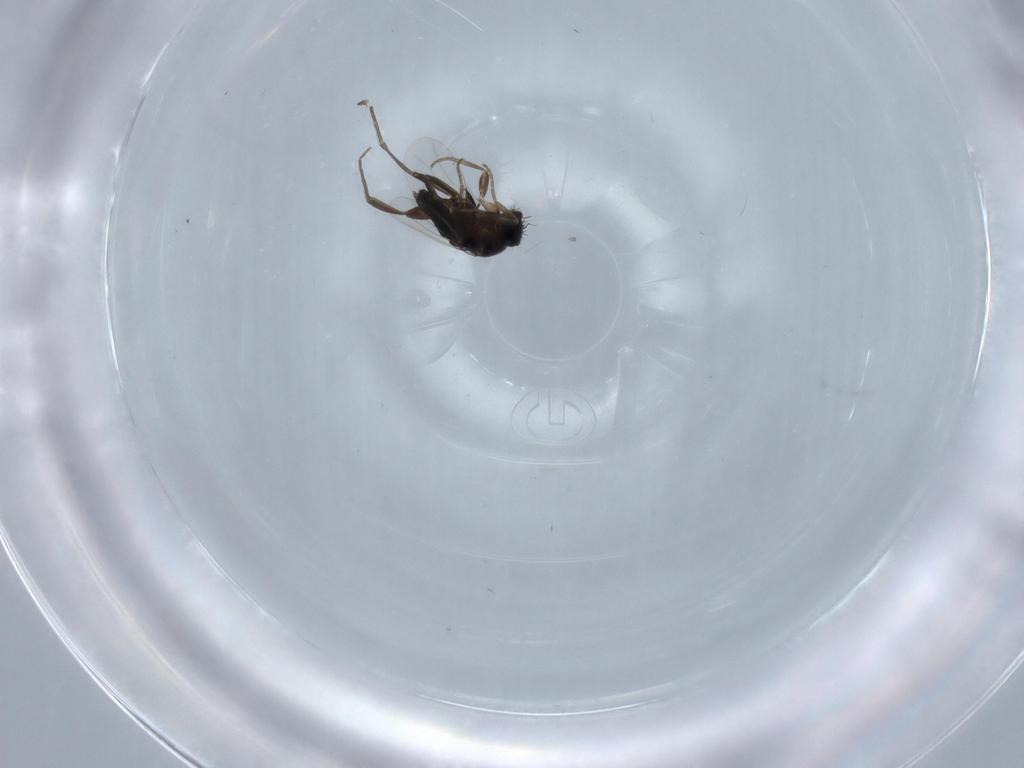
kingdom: Animalia
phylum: Arthropoda
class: Insecta
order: Diptera
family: Phoridae
